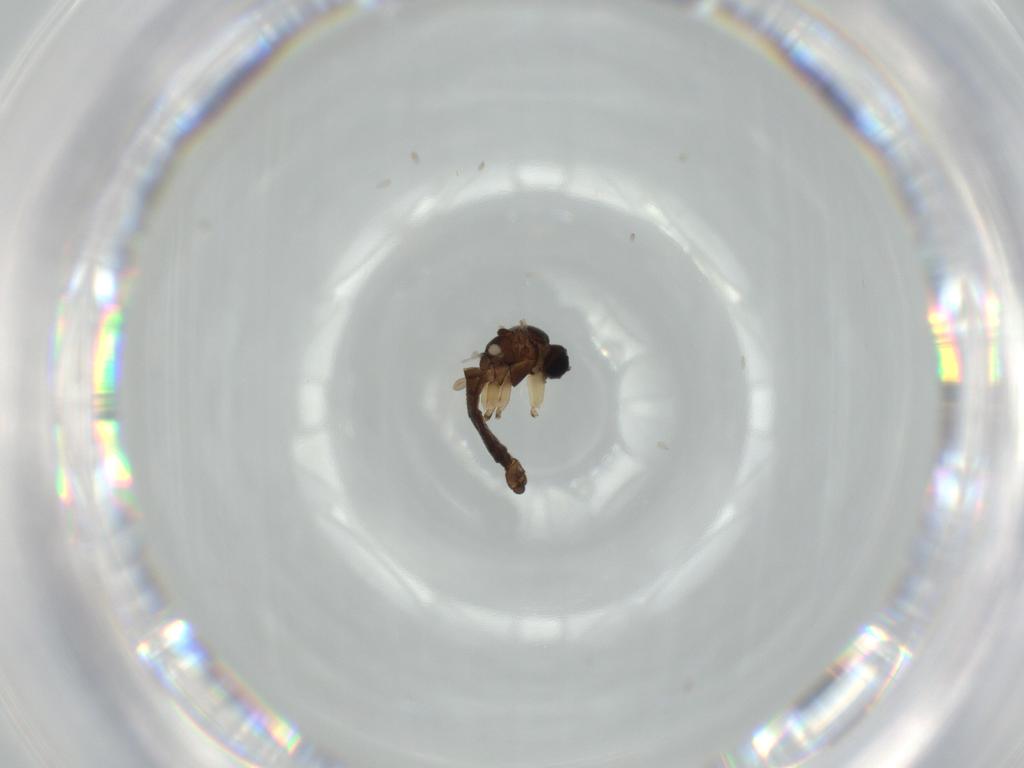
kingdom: Animalia
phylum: Arthropoda
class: Insecta
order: Diptera
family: Sciaridae
